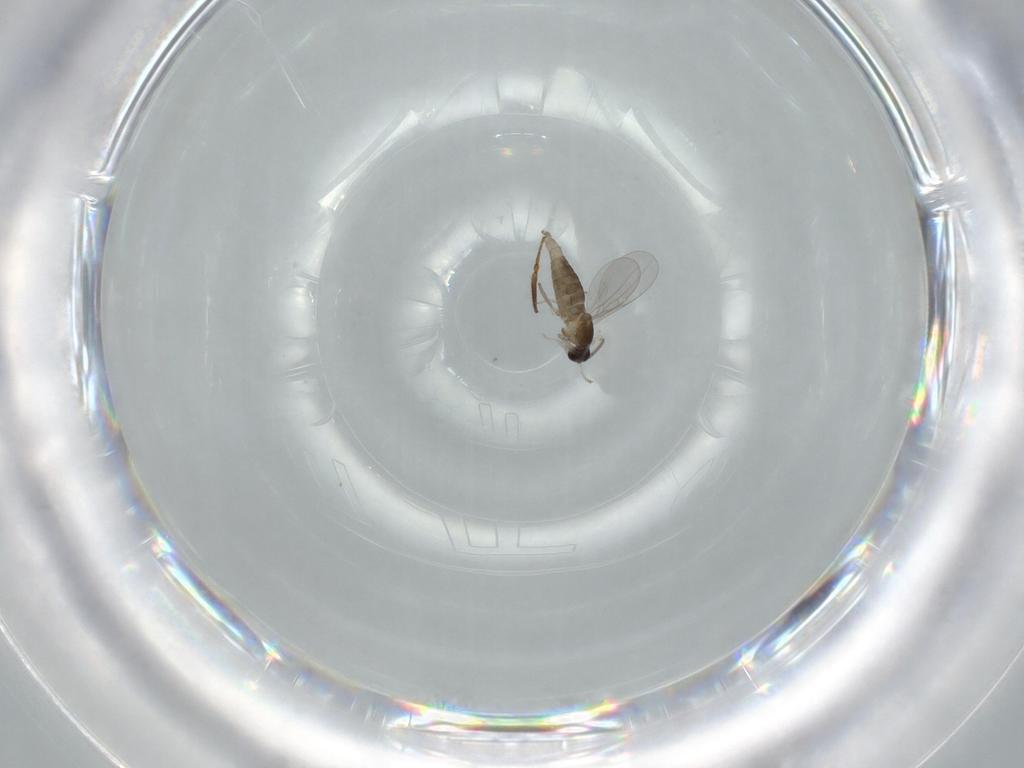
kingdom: Animalia
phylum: Arthropoda
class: Insecta
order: Diptera
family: Cecidomyiidae
